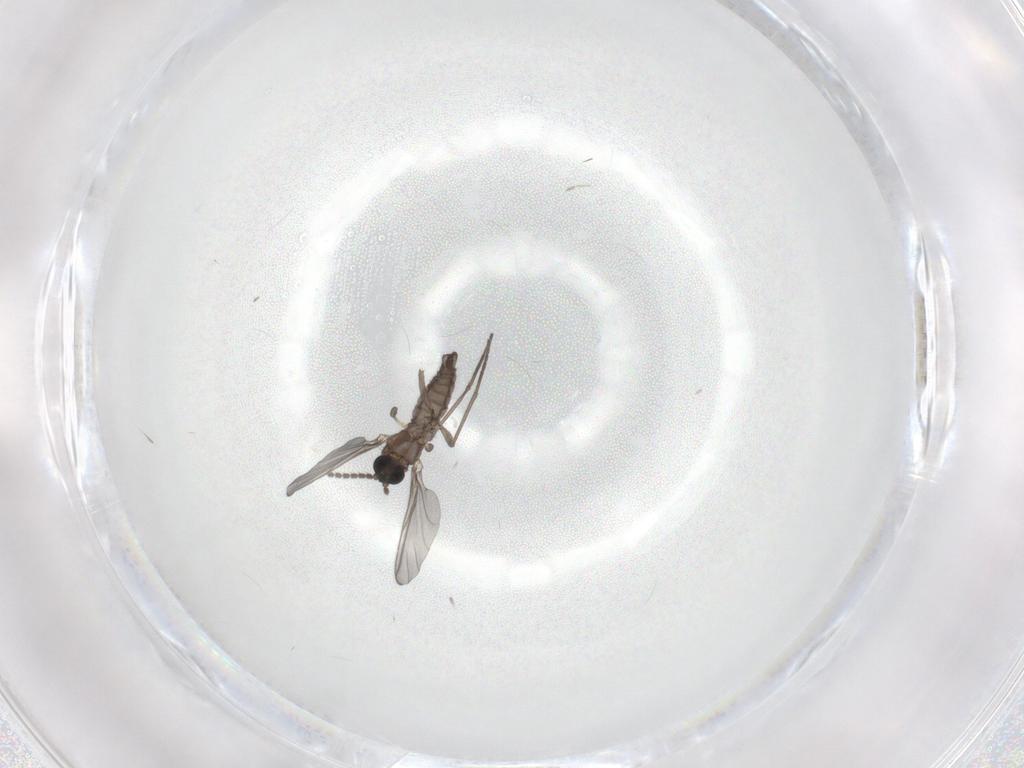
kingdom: Animalia
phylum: Arthropoda
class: Insecta
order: Diptera
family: Chironomidae
